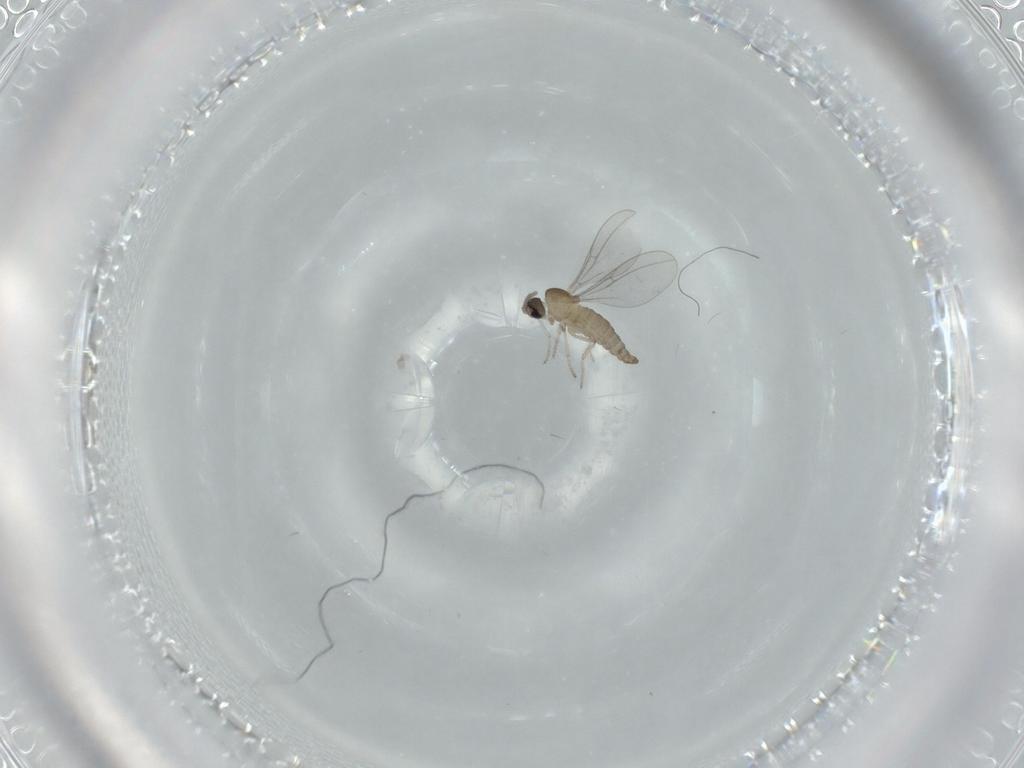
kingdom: Animalia
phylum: Arthropoda
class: Insecta
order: Diptera
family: Cecidomyiidae
